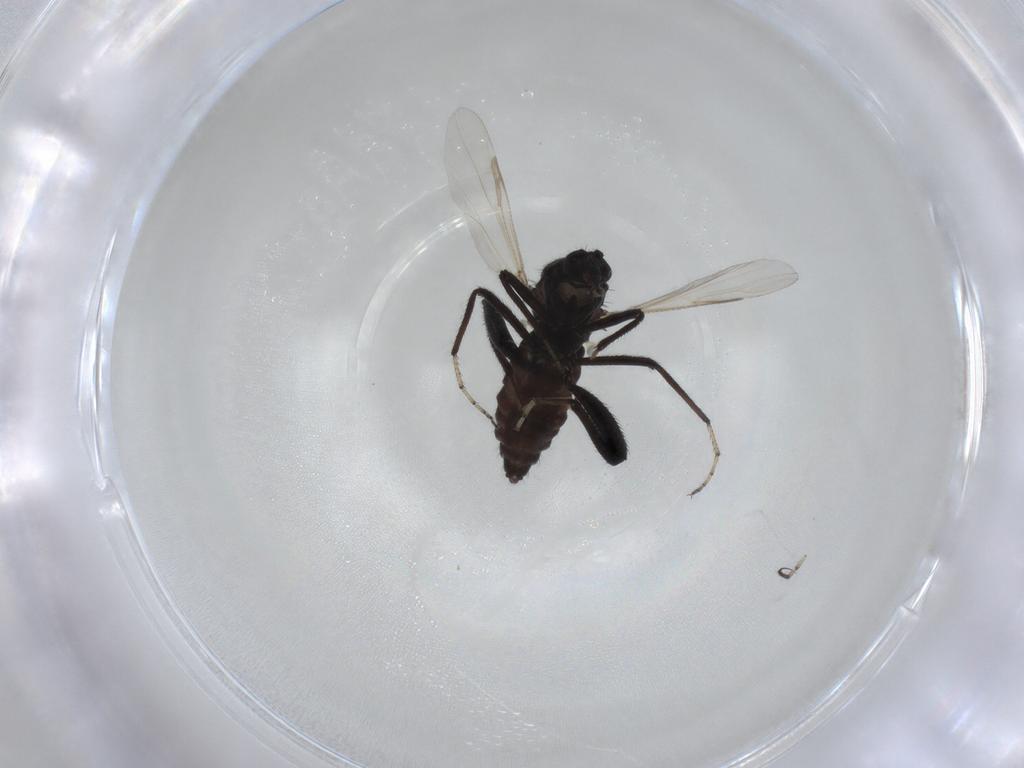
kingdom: Animalia
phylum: Arthropoda
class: Insecta
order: Diptera
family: Ceratopogonidae
